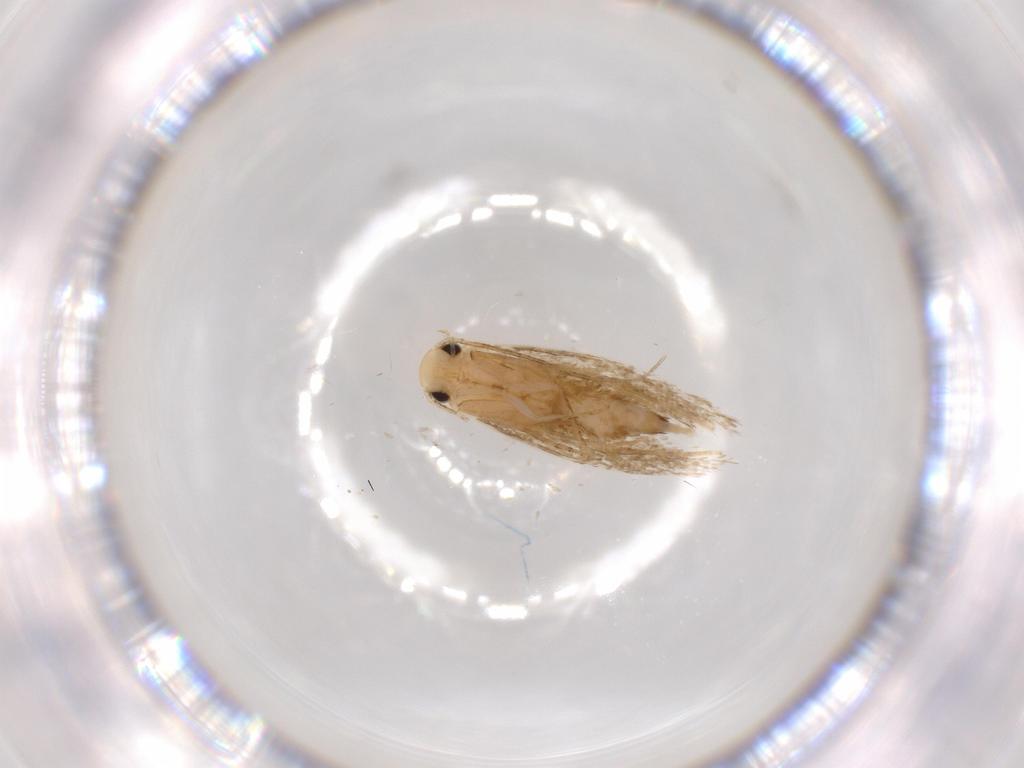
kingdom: Animalia
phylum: Arthropoda
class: Insecta
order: Lepidoptera
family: Tineidae
